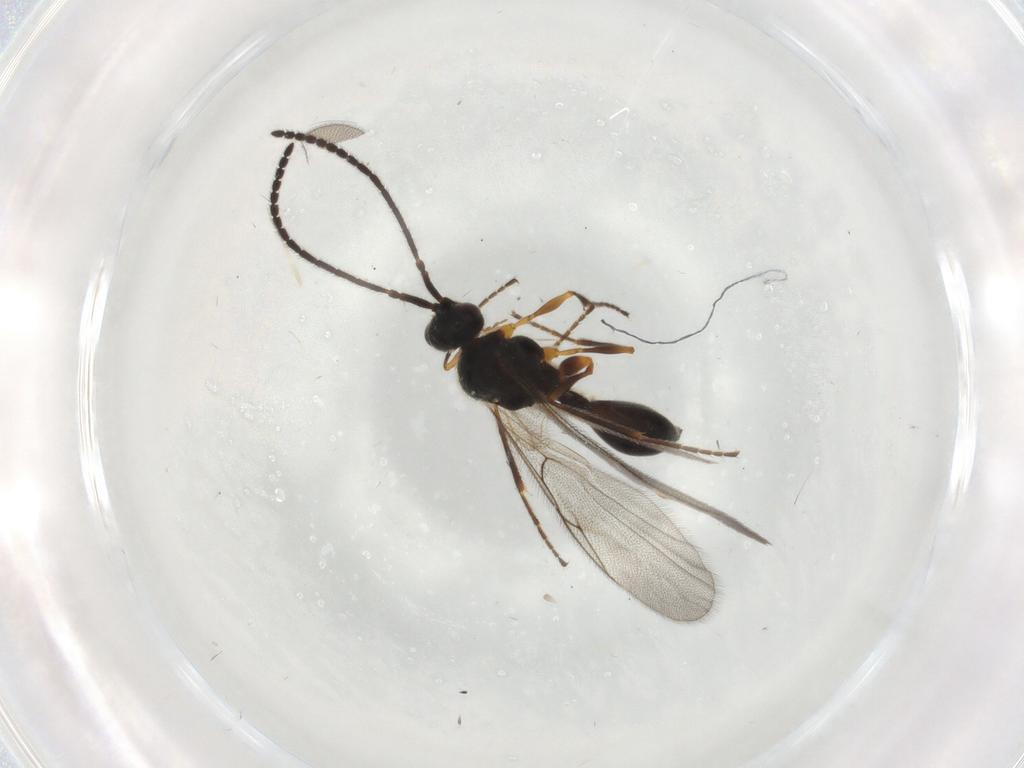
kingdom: Animalia
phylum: Arthropoda
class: Insecta
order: Hymenoptera
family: Diapriidae
